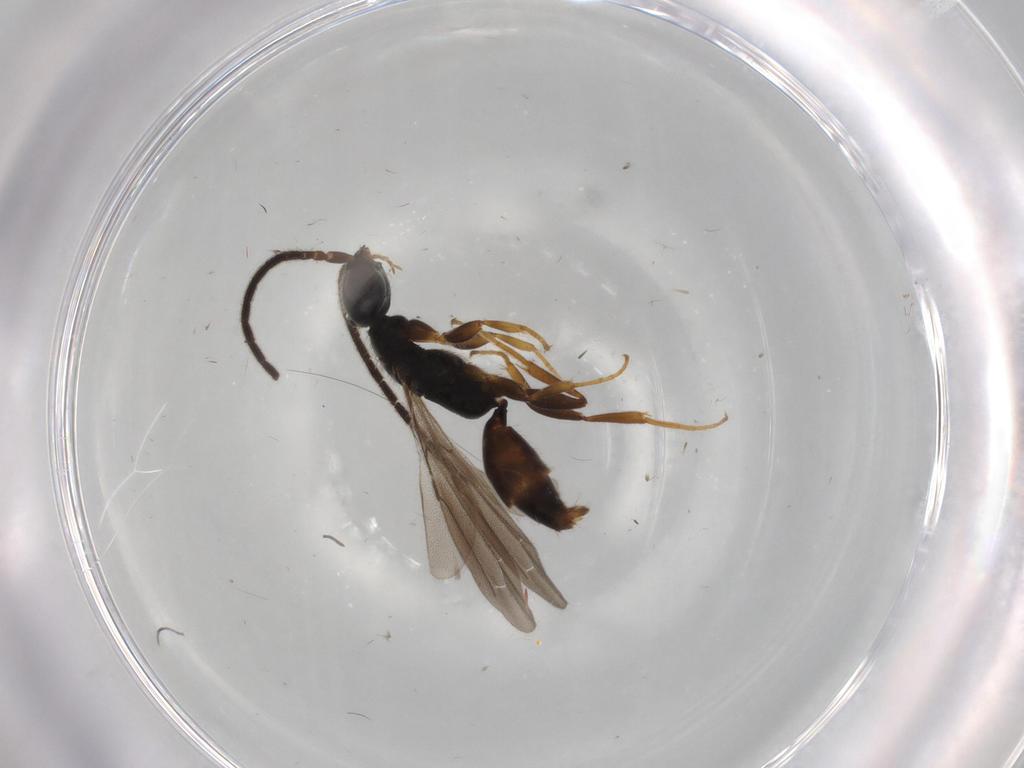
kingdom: Animalia
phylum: Arthropoda
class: Insecta
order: Hymenoptera
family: Bethylidae
